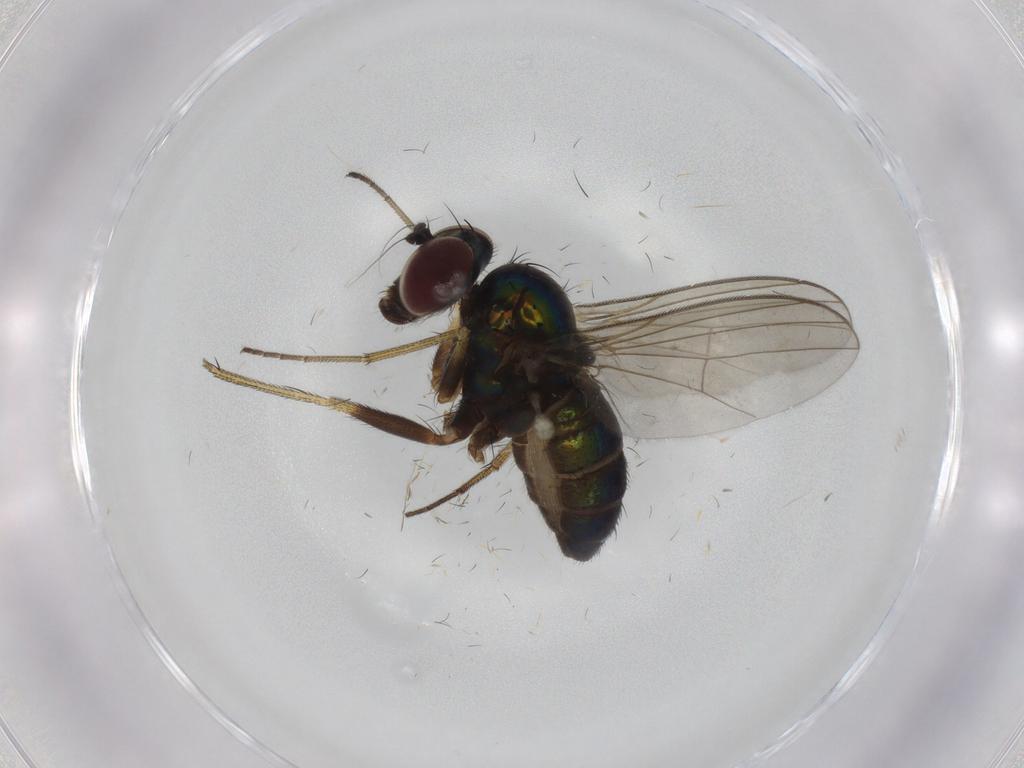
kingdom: Animalia
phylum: Arthropoda
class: Insecta
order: Diptera
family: Dolichopodidae
